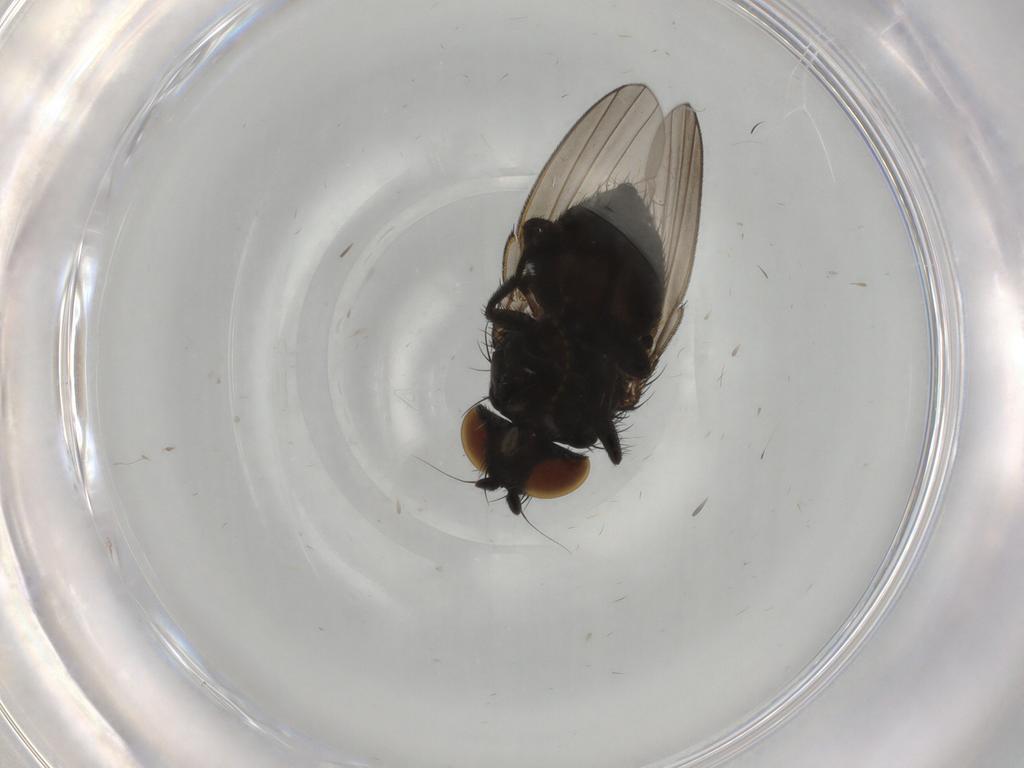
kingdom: Animalia
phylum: Arthropoda
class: Insecta
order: Diptera
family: Milichiidae
